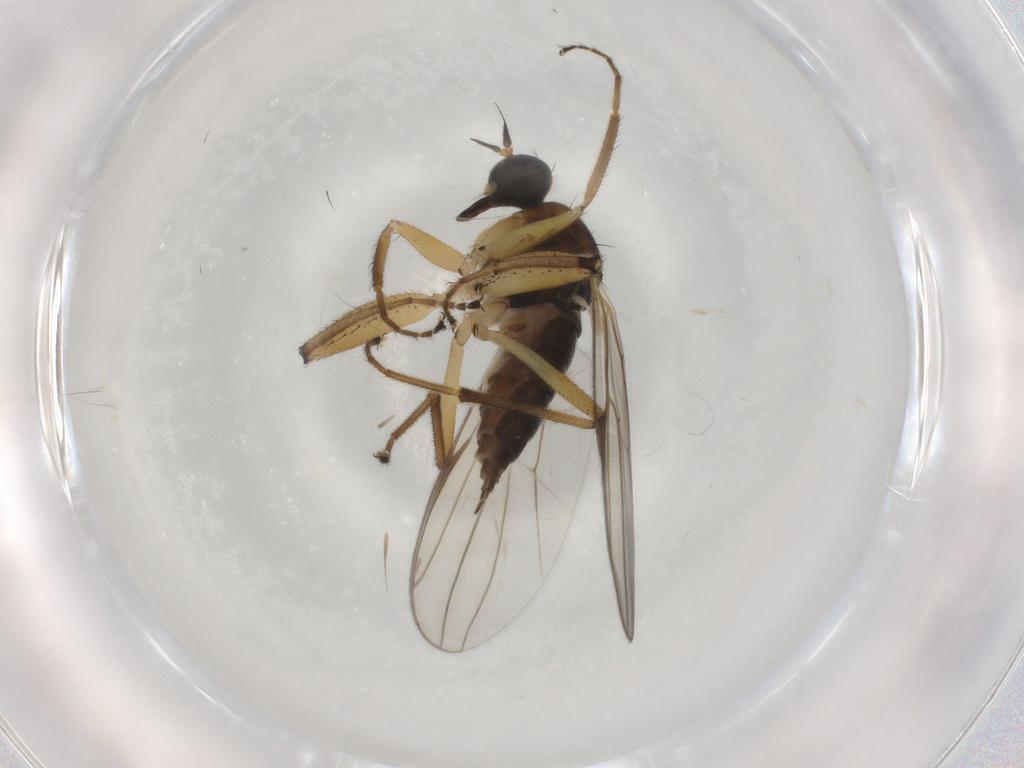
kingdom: Animalia
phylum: Arthropoda
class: Insecta
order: Diptera
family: Hybotidae
